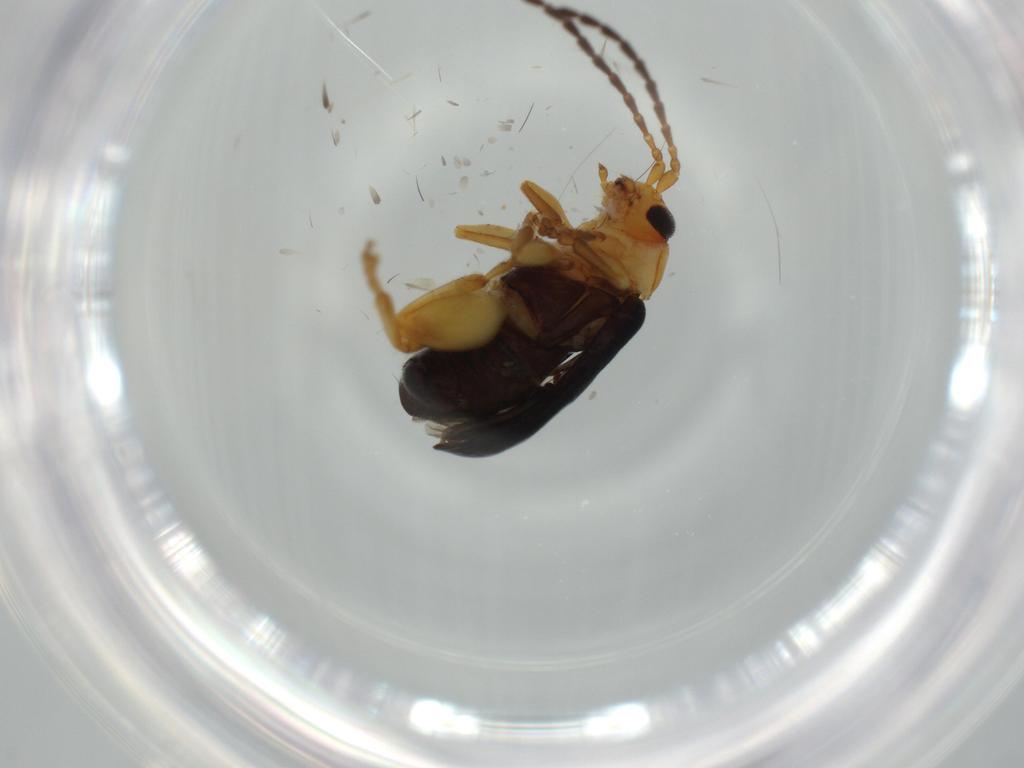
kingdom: Animalia
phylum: Arthropoda
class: Insecta
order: Coleoptera
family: Chrysomelidae
